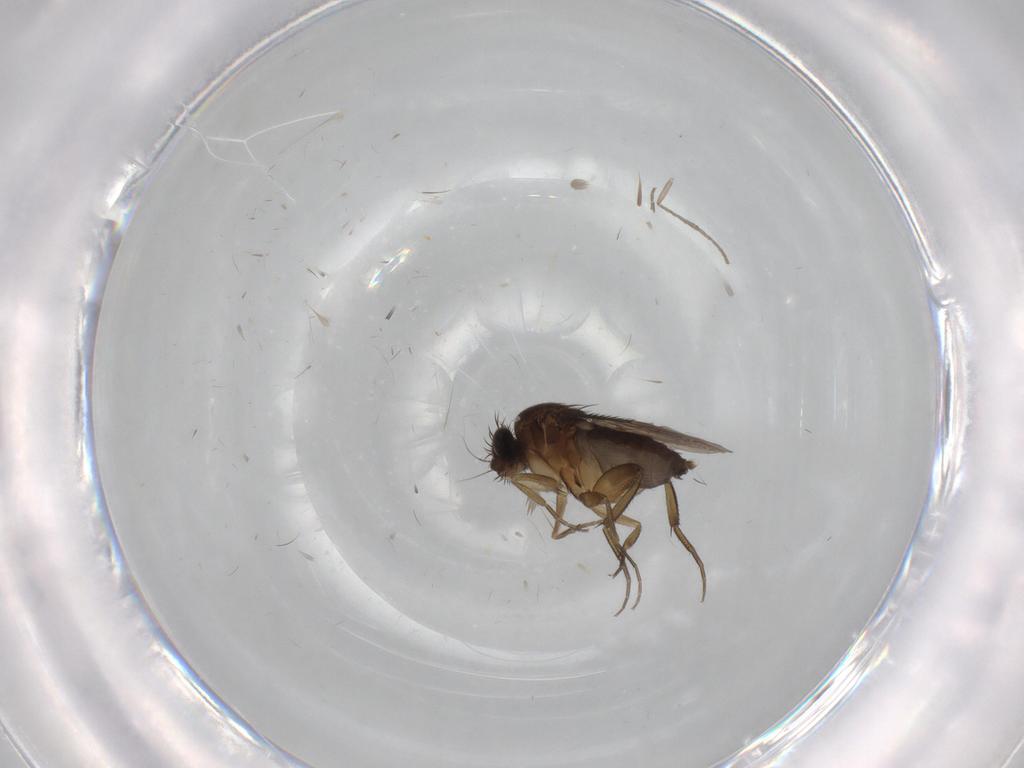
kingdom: Animalia
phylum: Arthropoda
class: Insecta
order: Diptera
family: Phoridae
